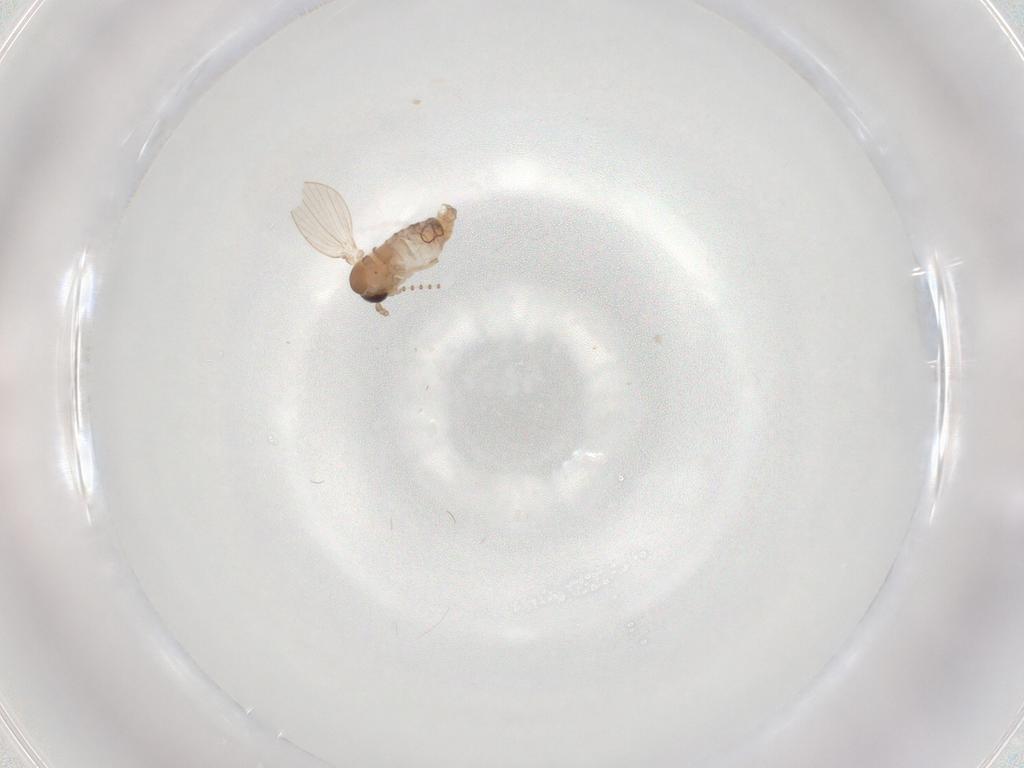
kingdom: Animalia
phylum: Arthropoda
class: Insecta
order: Diptera
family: Psychodidae
